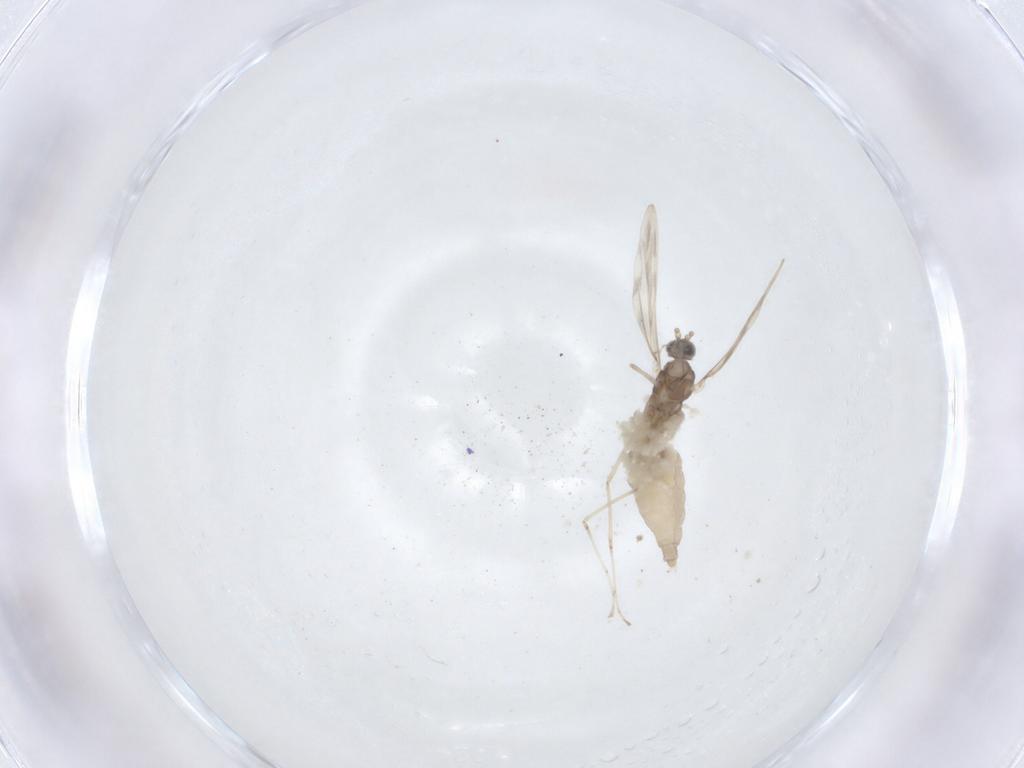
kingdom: Animalia
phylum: Arthropoda
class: Insecta
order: Diptera
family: Cecidomyiidae
